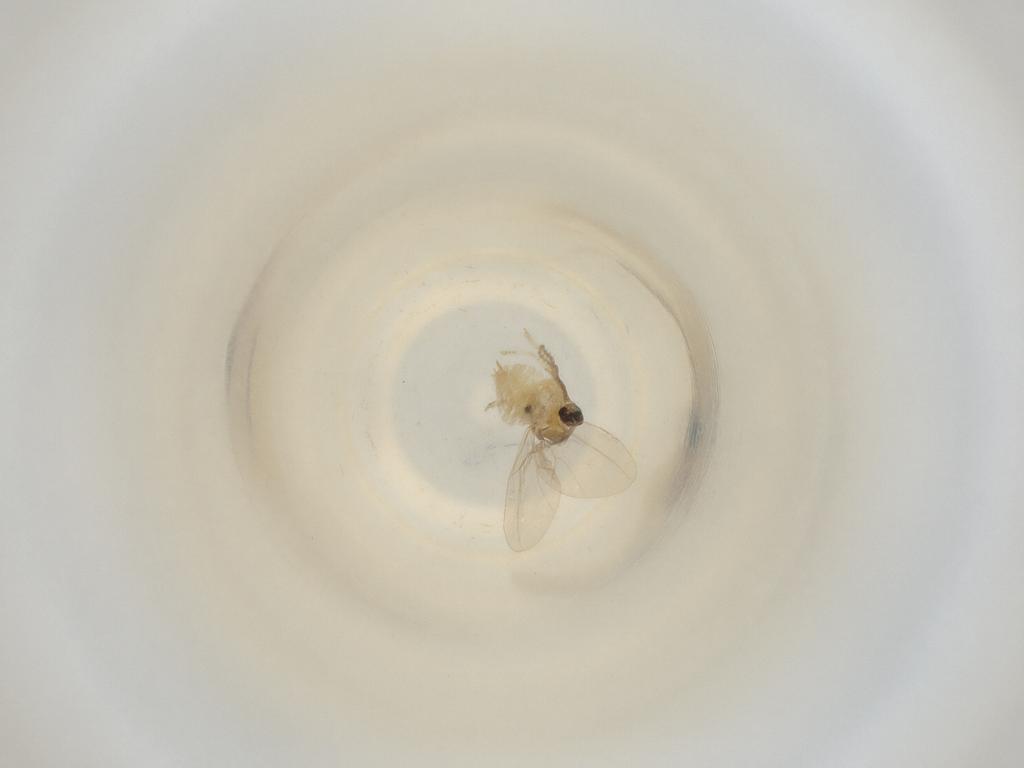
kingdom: Animalia
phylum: Arthropoda
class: Insecta
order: Diptera
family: Cecidomyiidae
